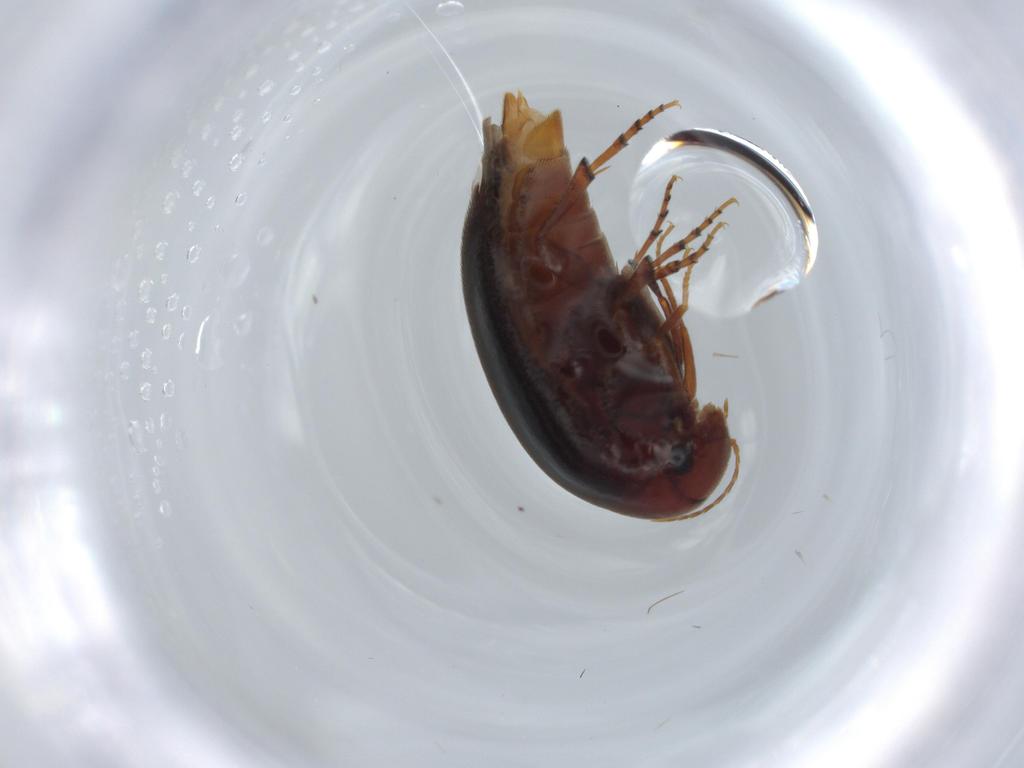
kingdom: Animalia
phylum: Arthropoda
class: Insecta
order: Coleoptera
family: Eucinetidae
